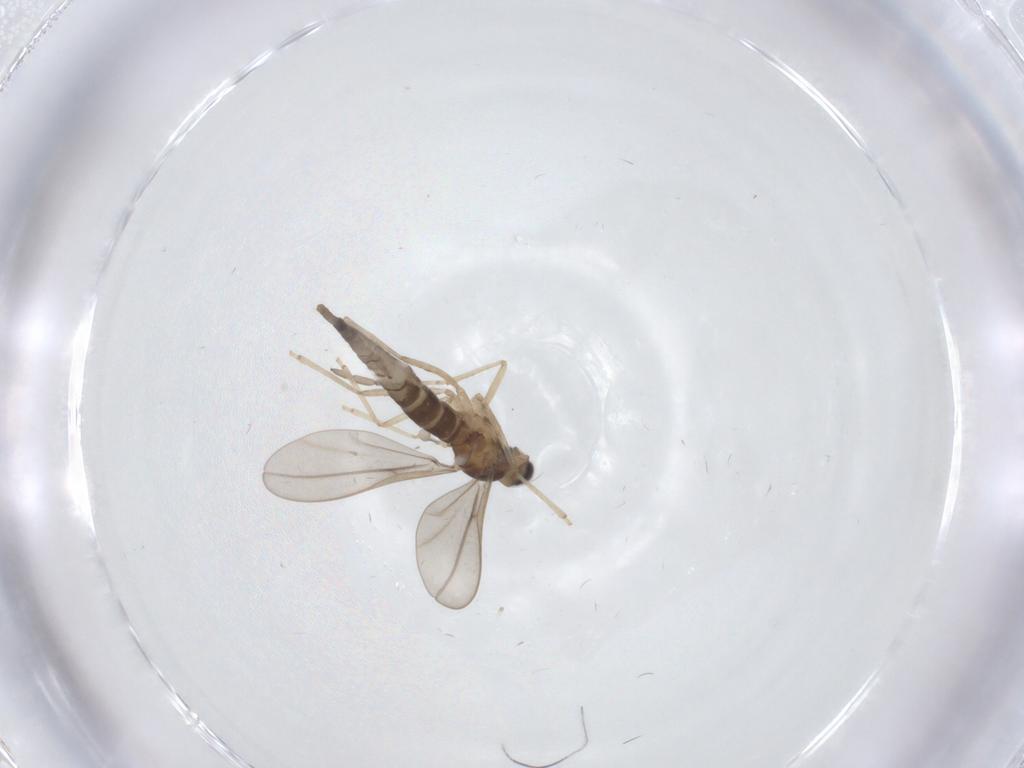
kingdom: Animalia
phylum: Arthropoda
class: Insecta
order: Diptera
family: Cecidomyiidae
